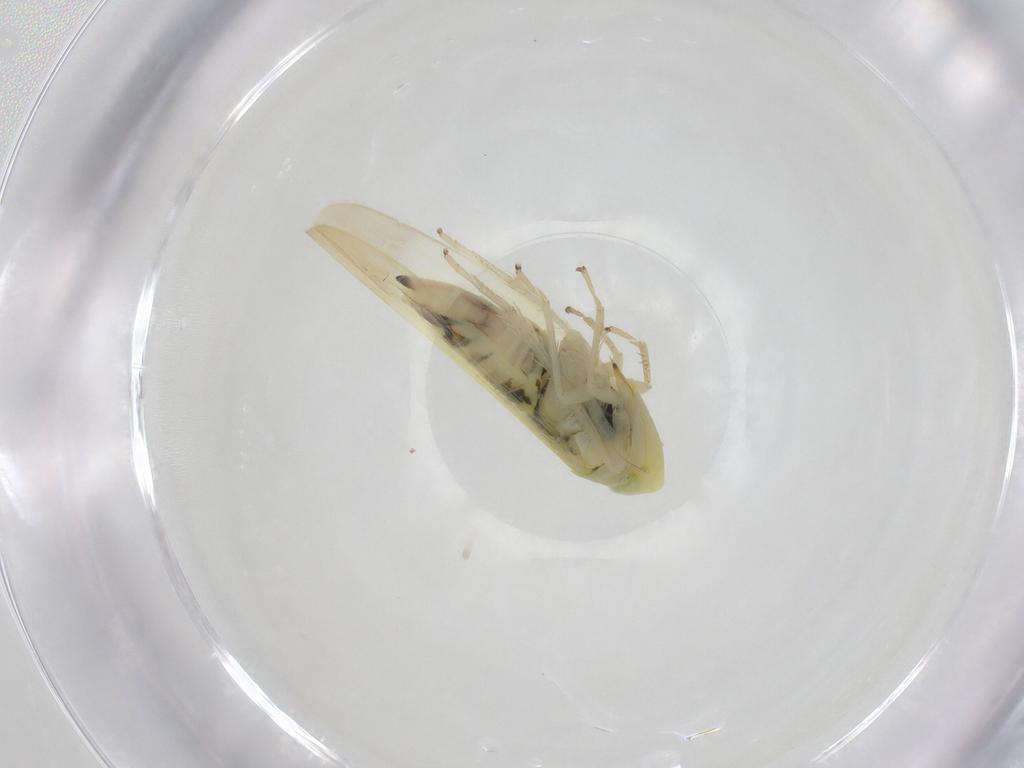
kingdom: Animalia
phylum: Arthropoda
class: Insecta
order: Hemiptera
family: Cicadellidae
